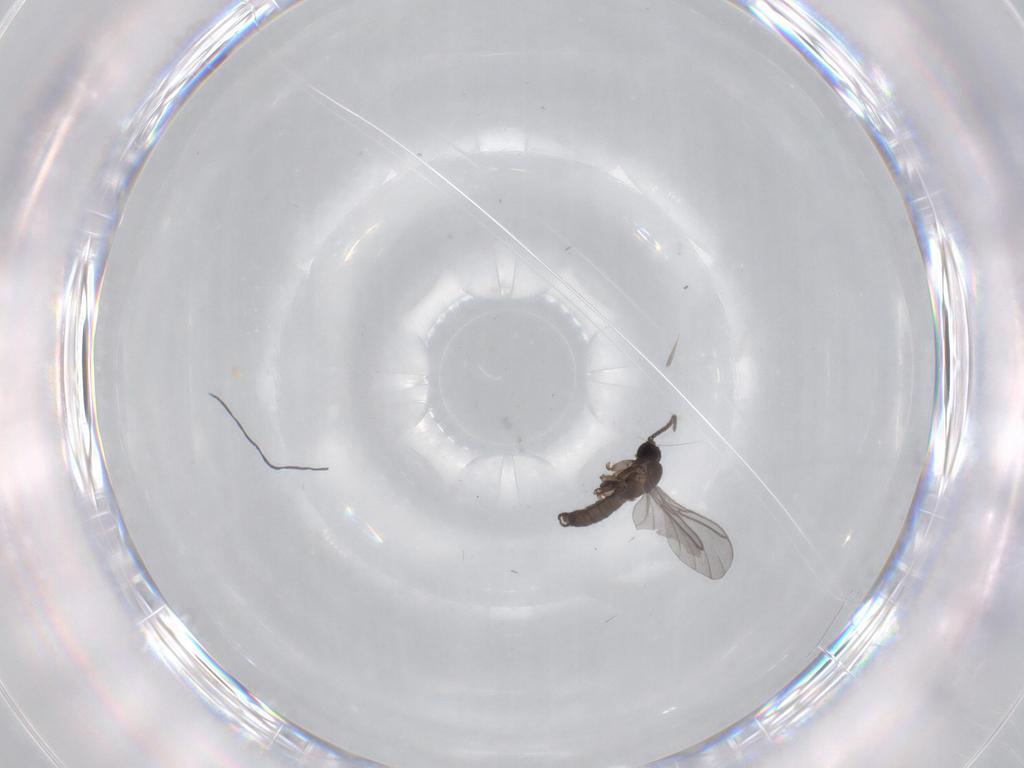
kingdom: Animalia
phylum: Arthropoda
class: Insecta
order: Diptera
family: Sciaridae
